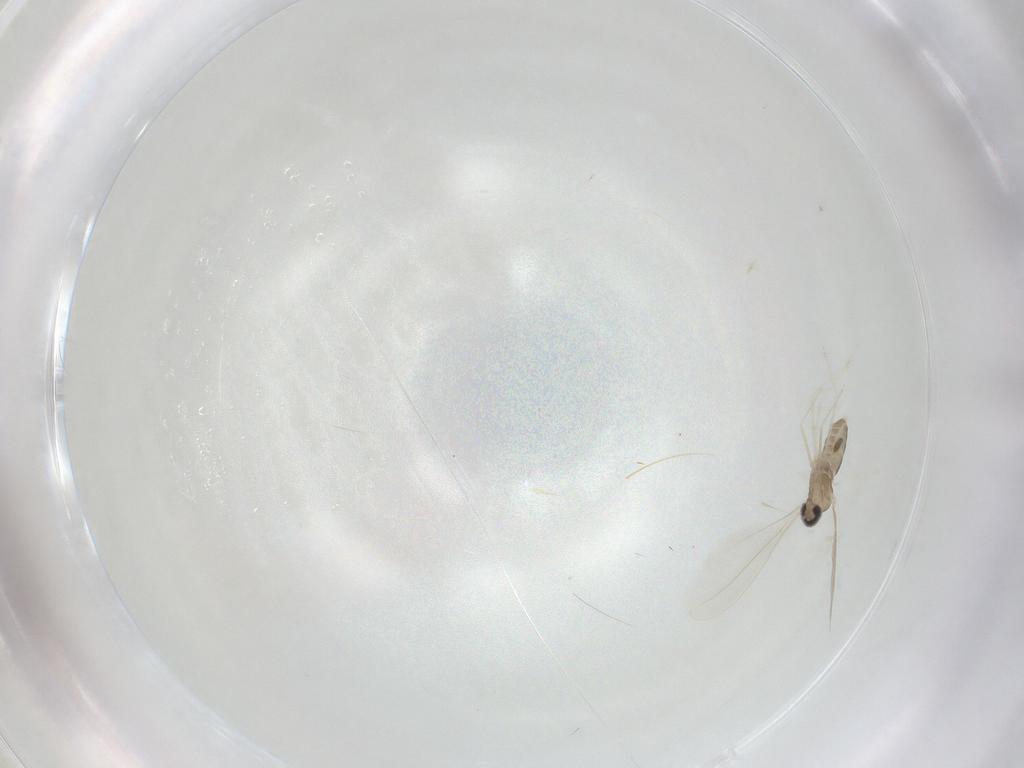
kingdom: Animalia
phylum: Arthropoda
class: Insecta
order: Diptera
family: Cecidomyiidae
